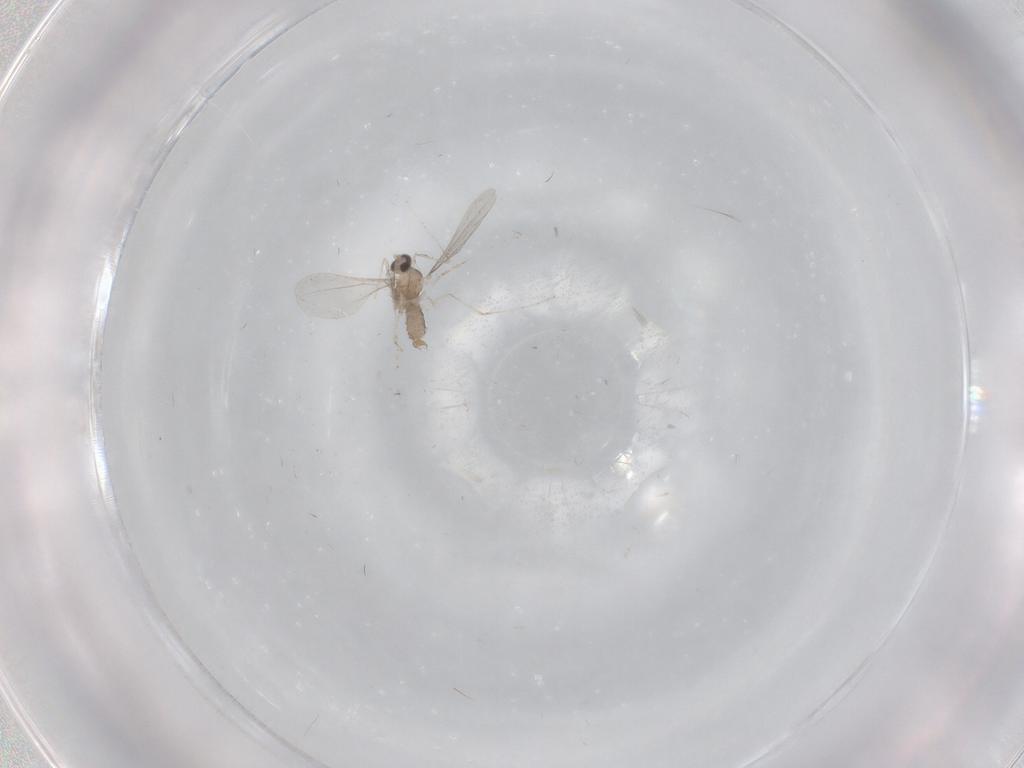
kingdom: Animalia
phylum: Arthropoda
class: Insecta
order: Diptera
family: Cecidomyiidae
